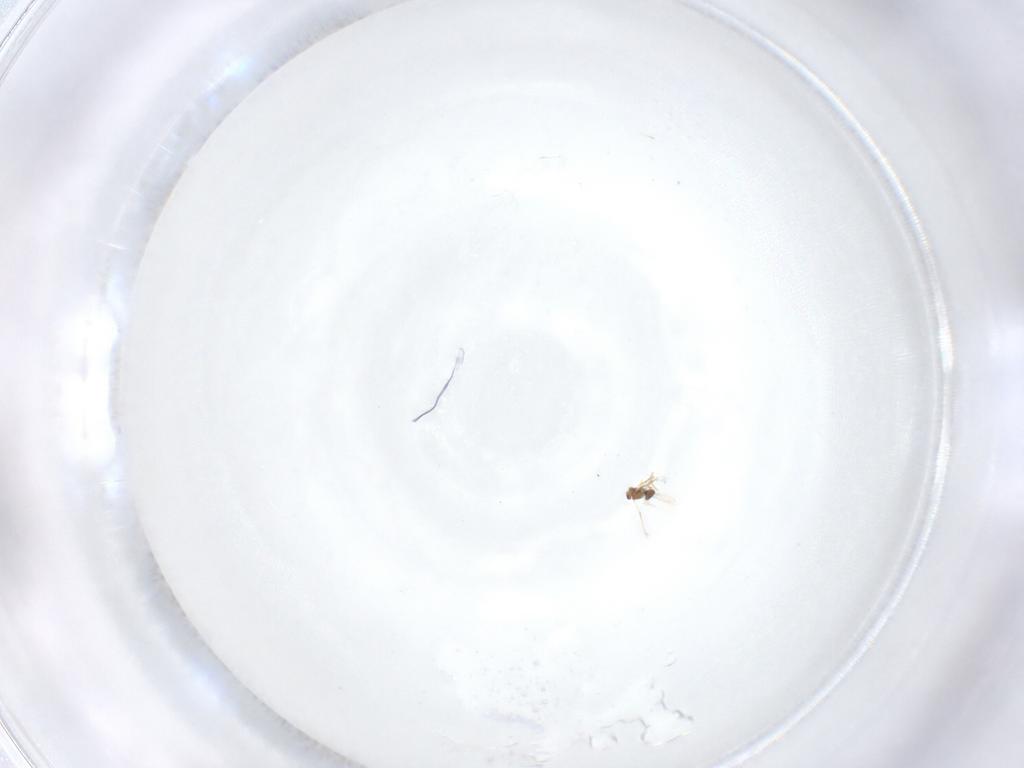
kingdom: Animalia
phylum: Arthropoda
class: Insecta
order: Diptera
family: Cecidomyiidae
